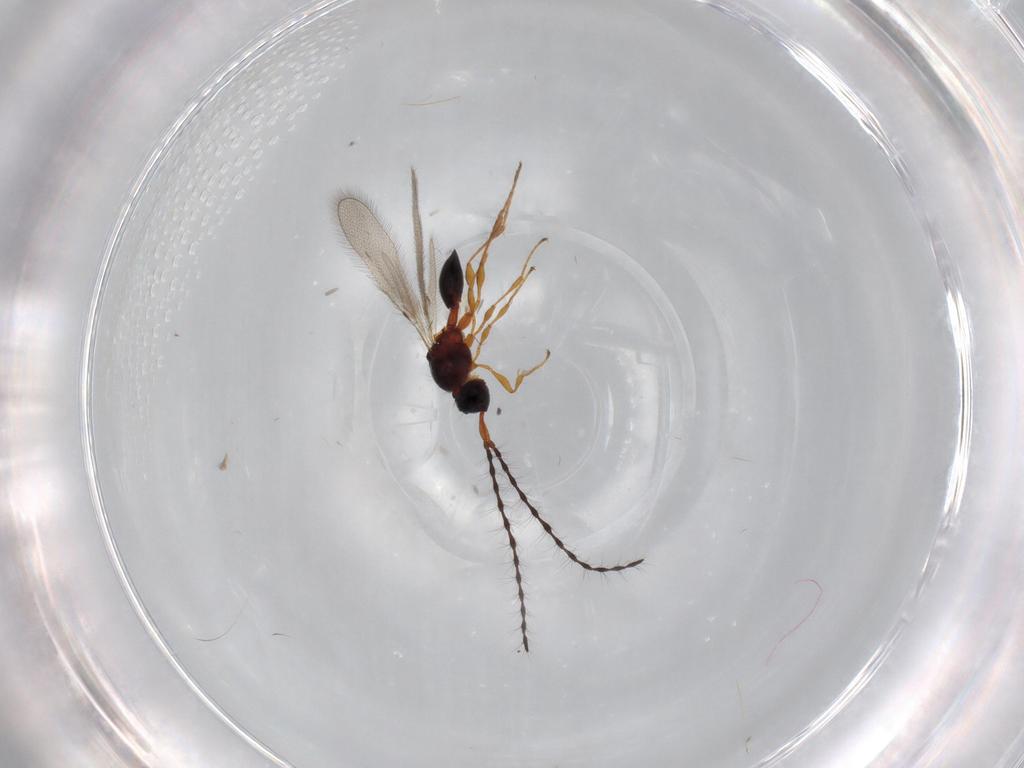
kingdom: Animalia
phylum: Arthropoda
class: Insecta
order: Hymenoptera
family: Diapriidae
